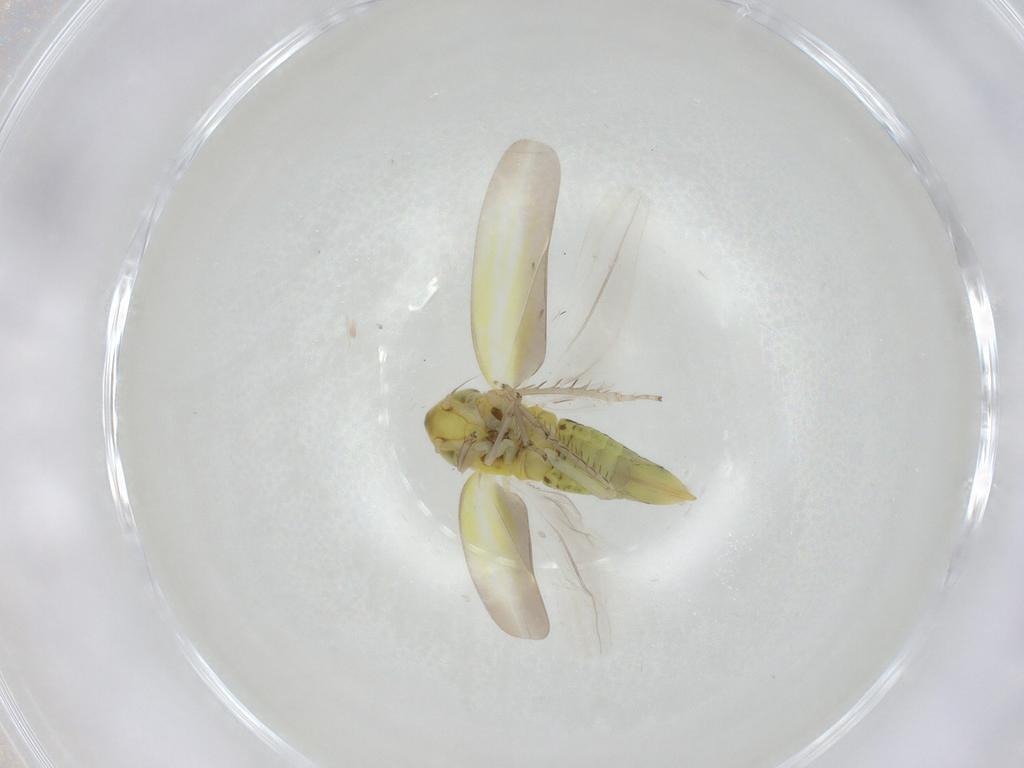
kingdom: Animalia
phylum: Arthropoda
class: Insecta
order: Hemiptera
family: Cicadellidae
